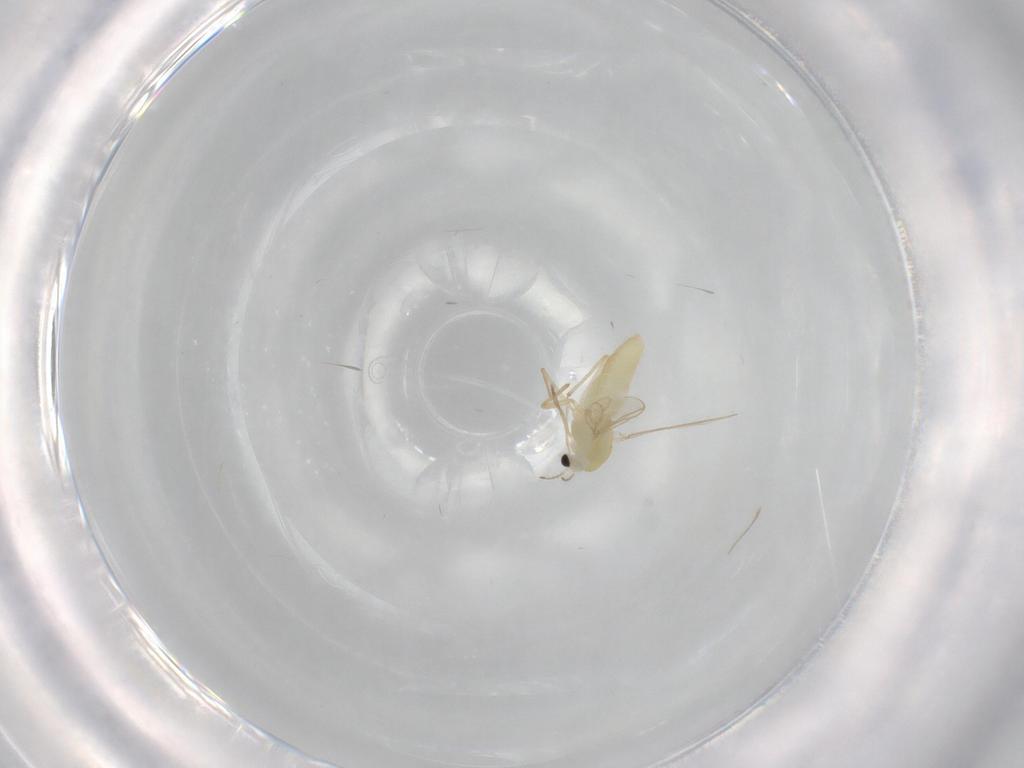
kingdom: Animalia
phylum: Arthropoda
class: Insecta
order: Diptera
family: Chironomidae
